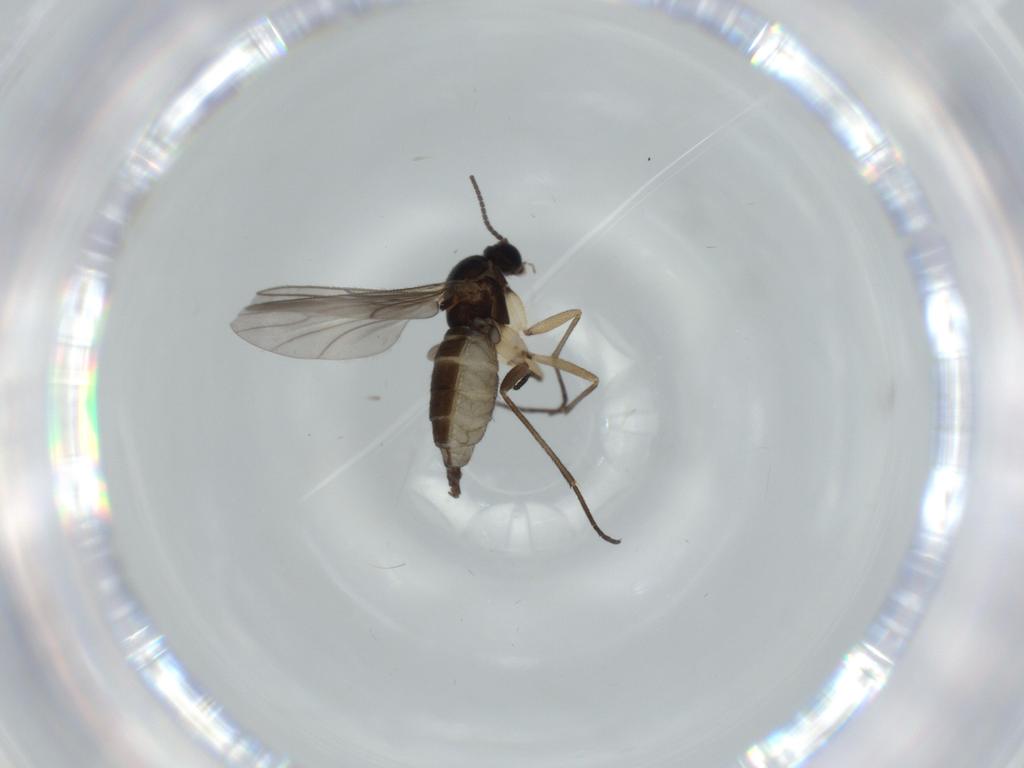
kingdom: Animalia
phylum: Arthropoda
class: Insecta
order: Diptera
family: Sciaridae
